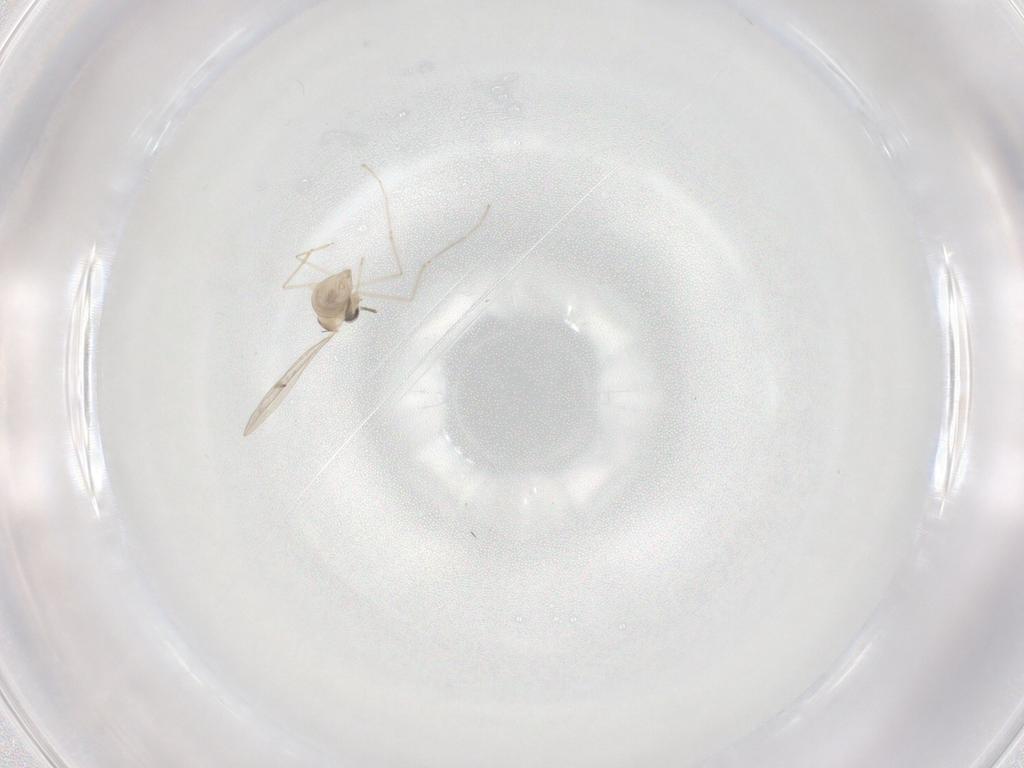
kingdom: Animalia
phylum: Arthropoda
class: Insecta
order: Diptera
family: Cecidomyiidae
